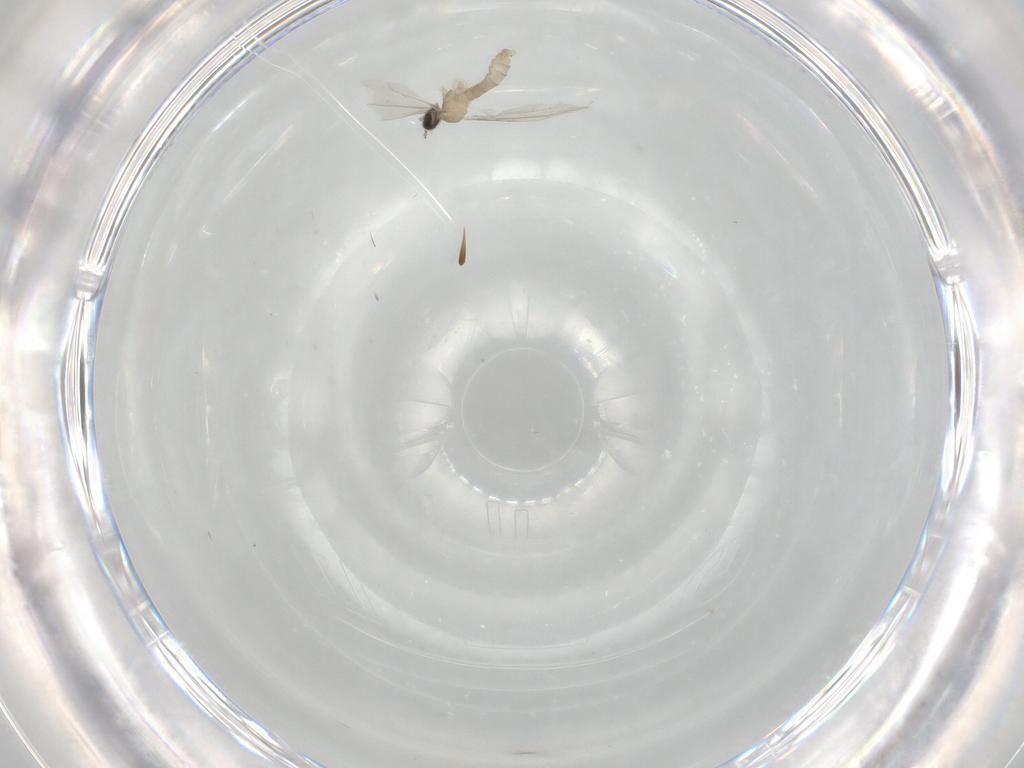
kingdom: Animalia
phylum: Arthropoda
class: Insecta
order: Diptera
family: Cecidomyiidae
